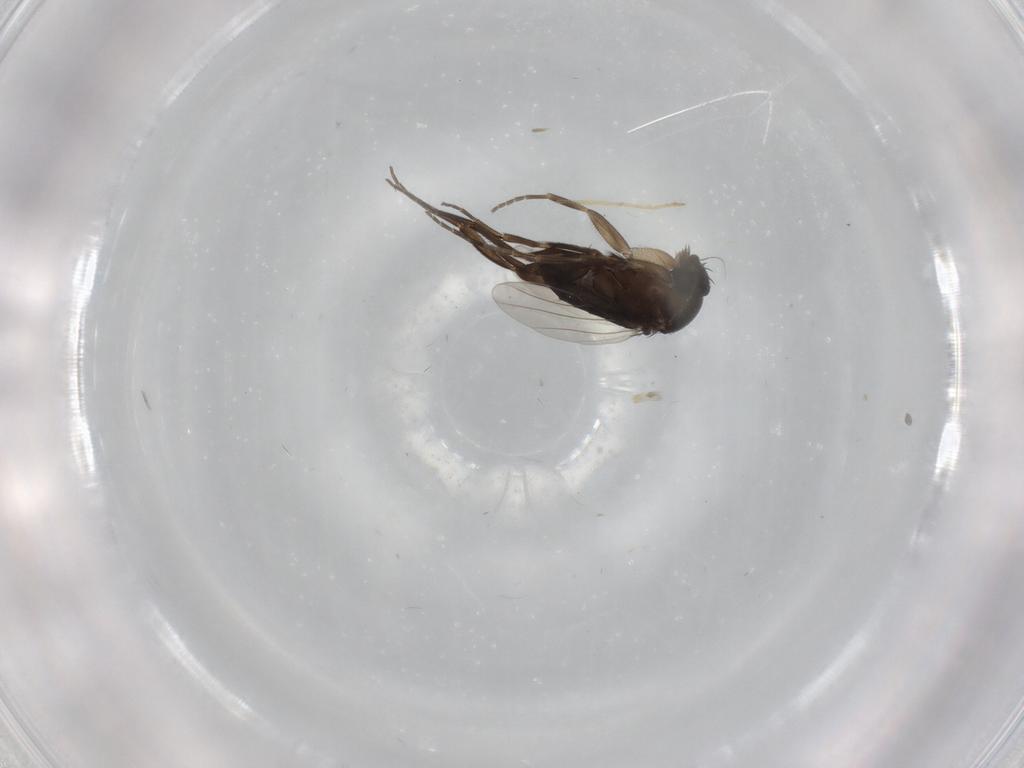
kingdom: Animalia
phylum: Arthropoda
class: Insecta
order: Diptera
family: Phoridae
